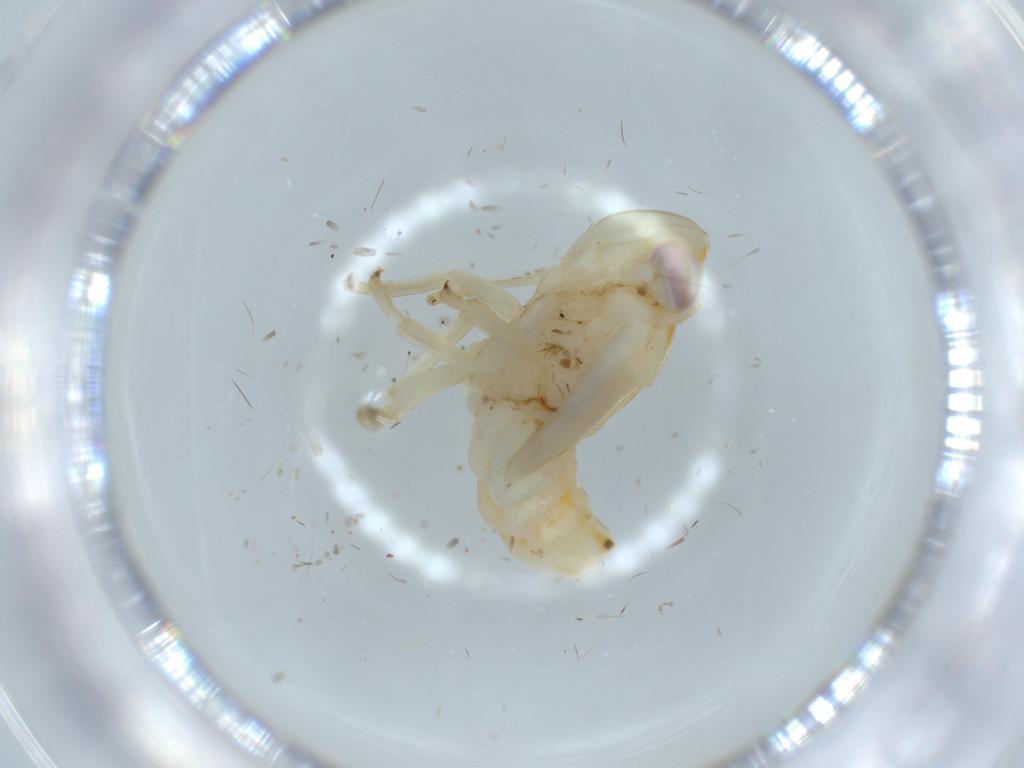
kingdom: Animalia
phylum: Arthropoda
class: Insecta
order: Hemiptera
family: Nogodinidae
